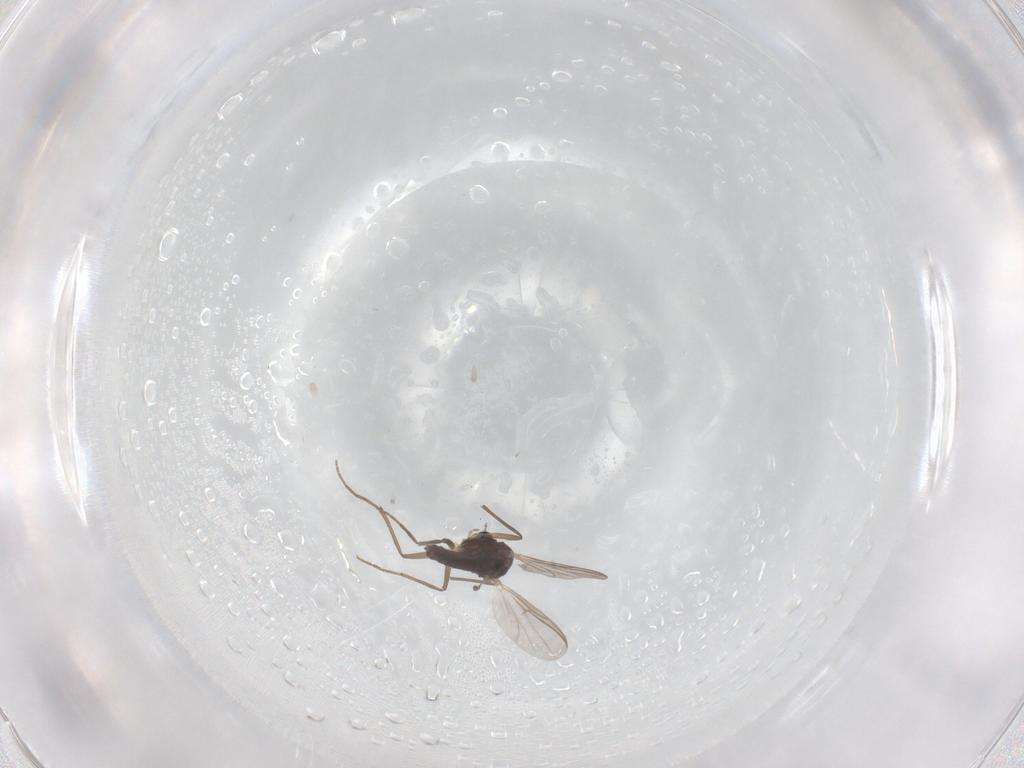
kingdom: Animalia
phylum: Arthropoda
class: Insecta
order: Diptera
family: Chironomidae
